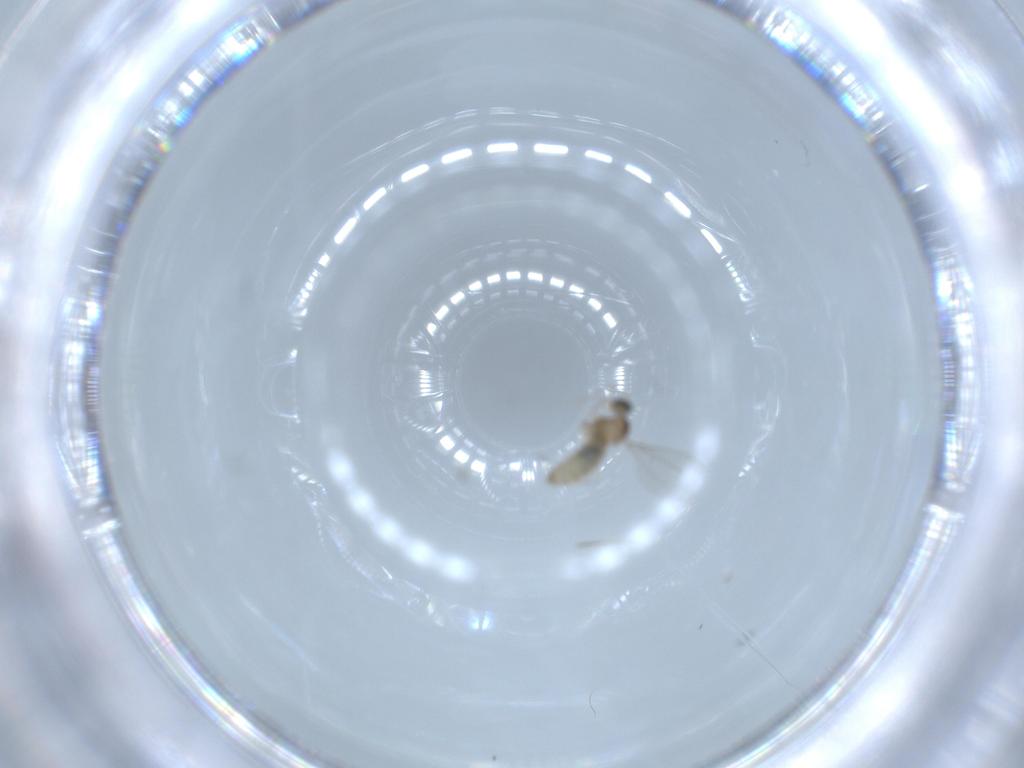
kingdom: Animalia
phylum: Arthropoda
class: Insecta
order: Diptera
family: Cecidomyiidae
